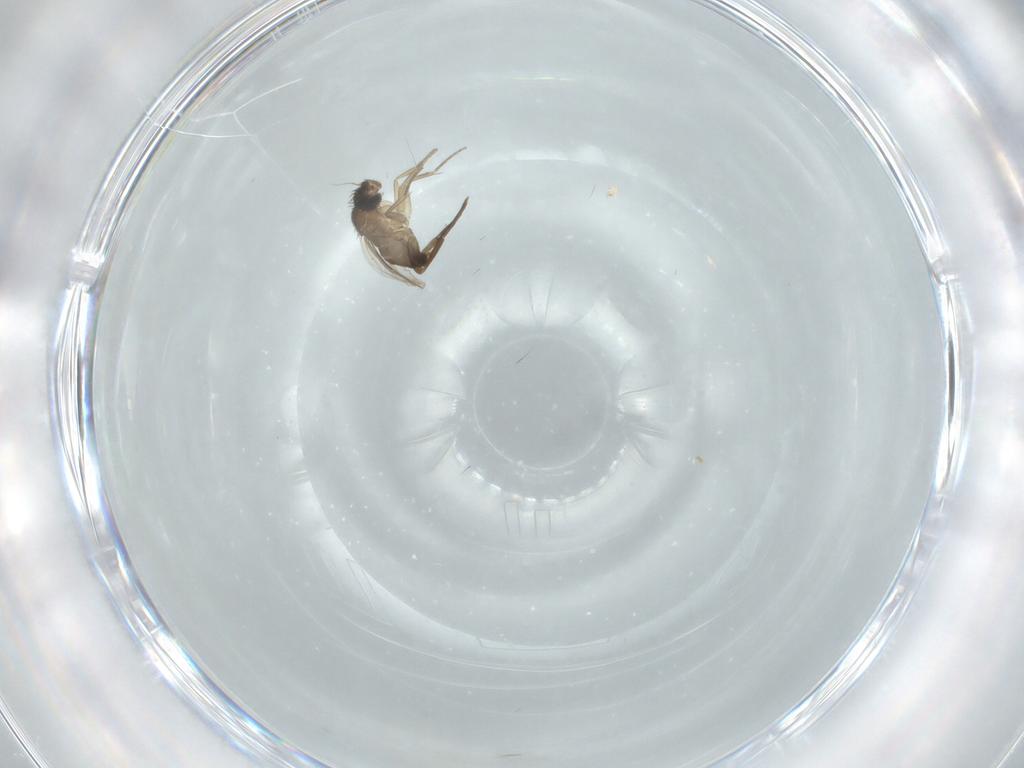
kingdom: Animalia
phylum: Arthropoda
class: Insecta
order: Diptera
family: Phoridae
